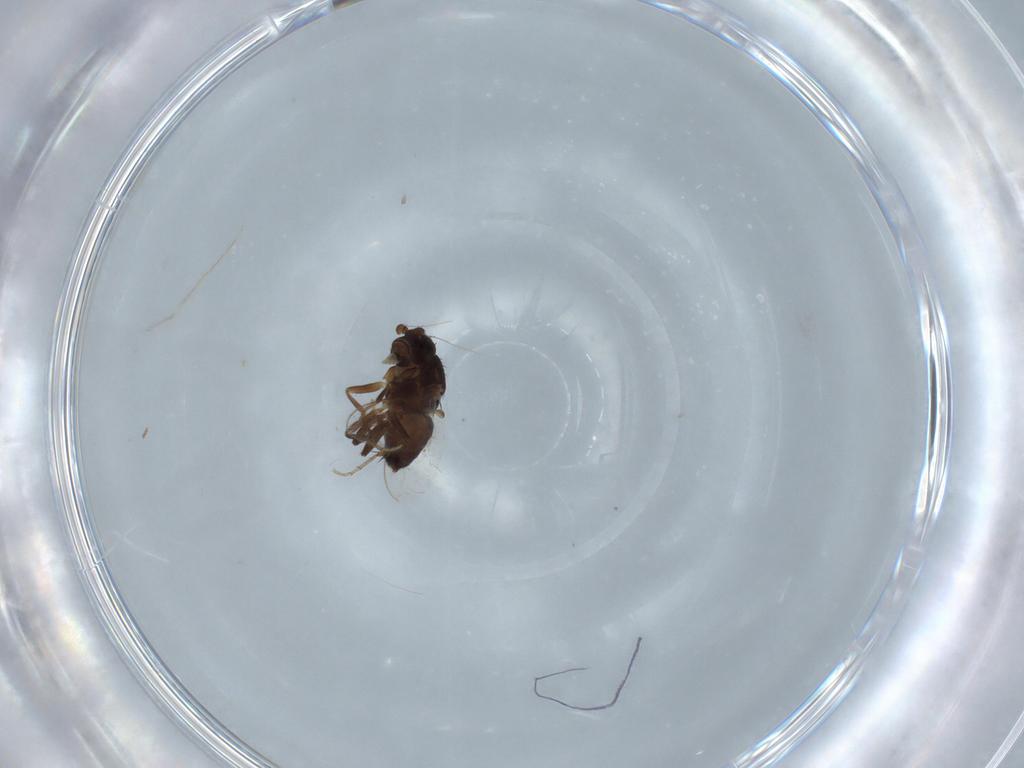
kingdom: Animalia
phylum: Arthropoda
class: Insecta
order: Diptera
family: Sphaeroceridae
